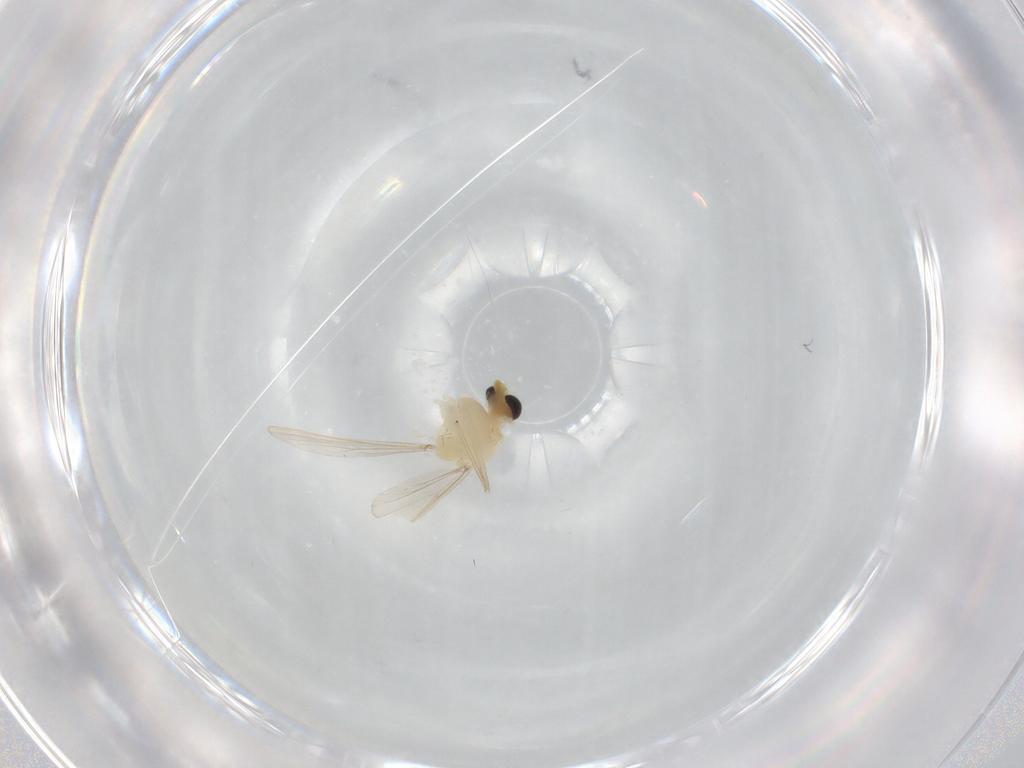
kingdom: Animalia
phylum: Arthropoda
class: Insecta
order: Diptera
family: Chironomidae
